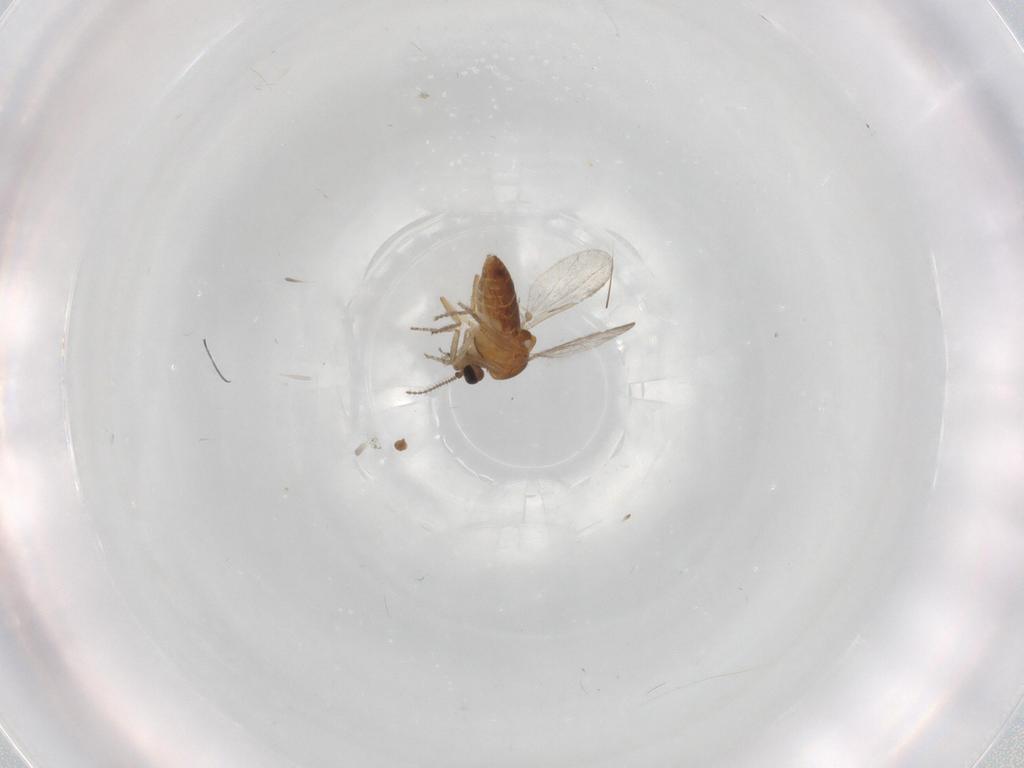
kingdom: Animalia
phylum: Arthropoda
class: Insecta
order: Diptera
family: Ceratopogonidae
